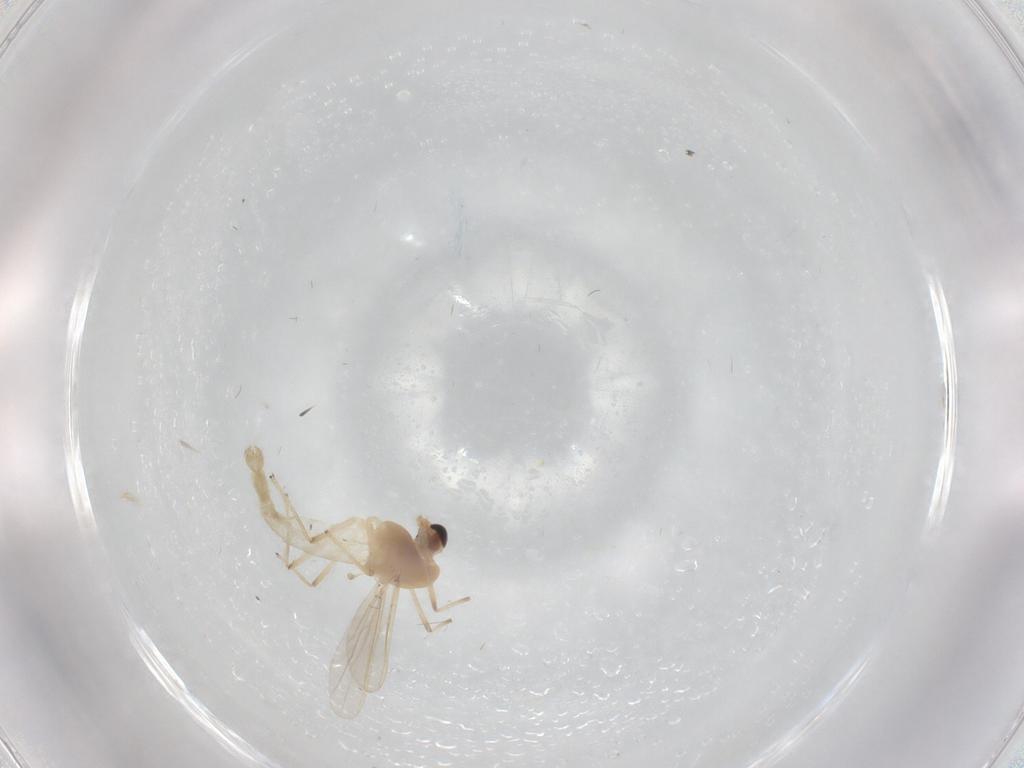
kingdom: Animalia
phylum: Arthropoda
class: Insecta
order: Diptera
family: Chironomidae
